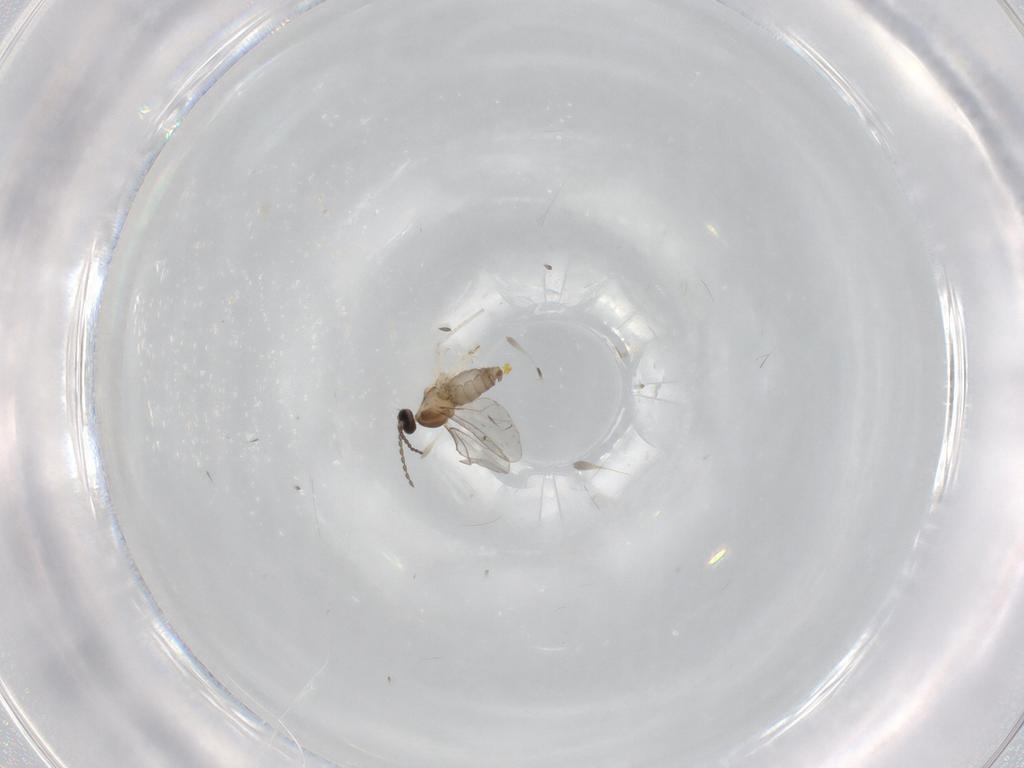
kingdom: Animalia
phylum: Arthropoda
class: Insecta
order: Diptera
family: Cecidomyiidae
